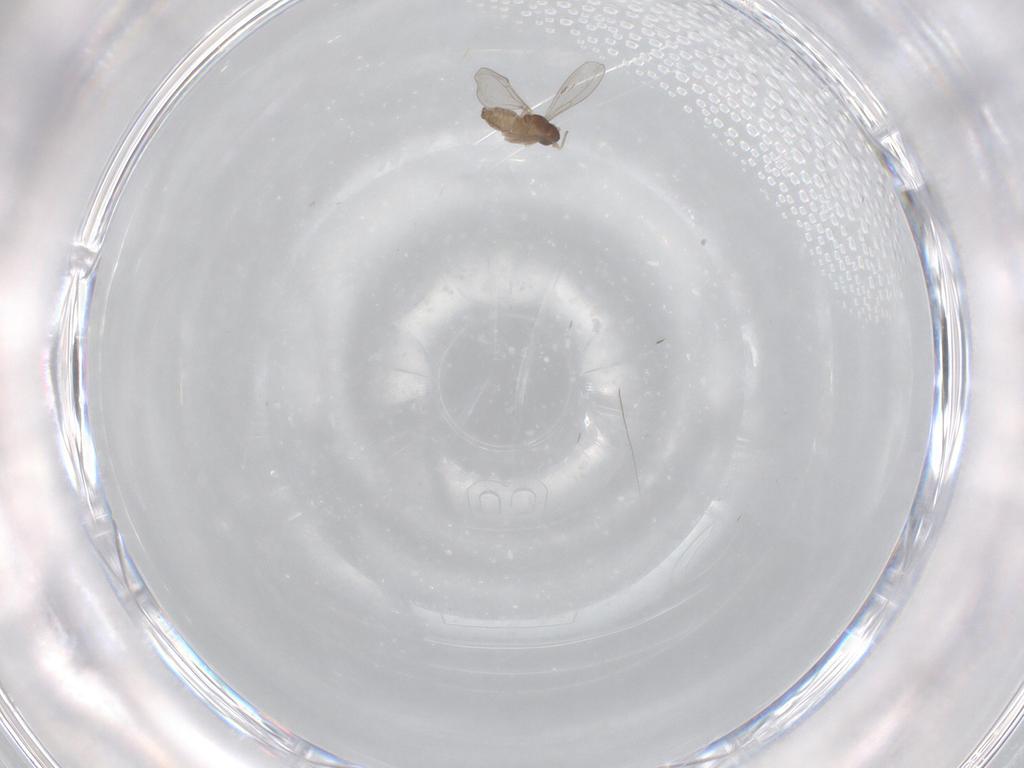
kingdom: Animalia
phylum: Arthropoda
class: Insecta
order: Diptera
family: Cecidomyiidae
